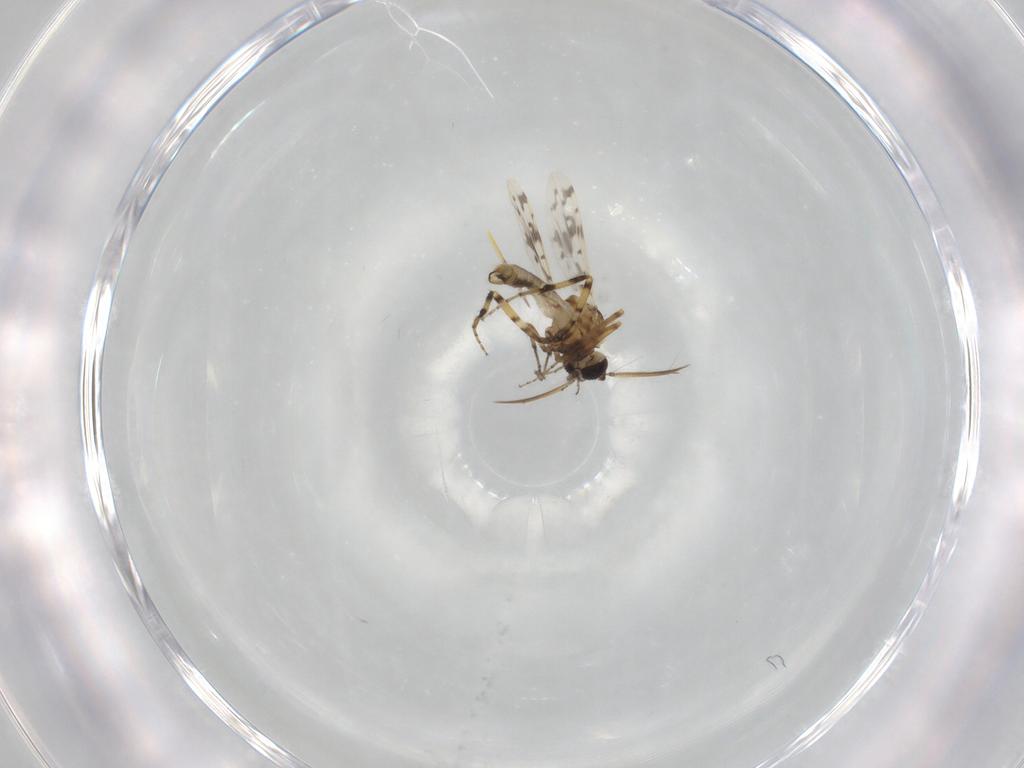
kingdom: Animalia
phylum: Arthropoda
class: Insecta
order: Diptera
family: Ceratopogonidae
